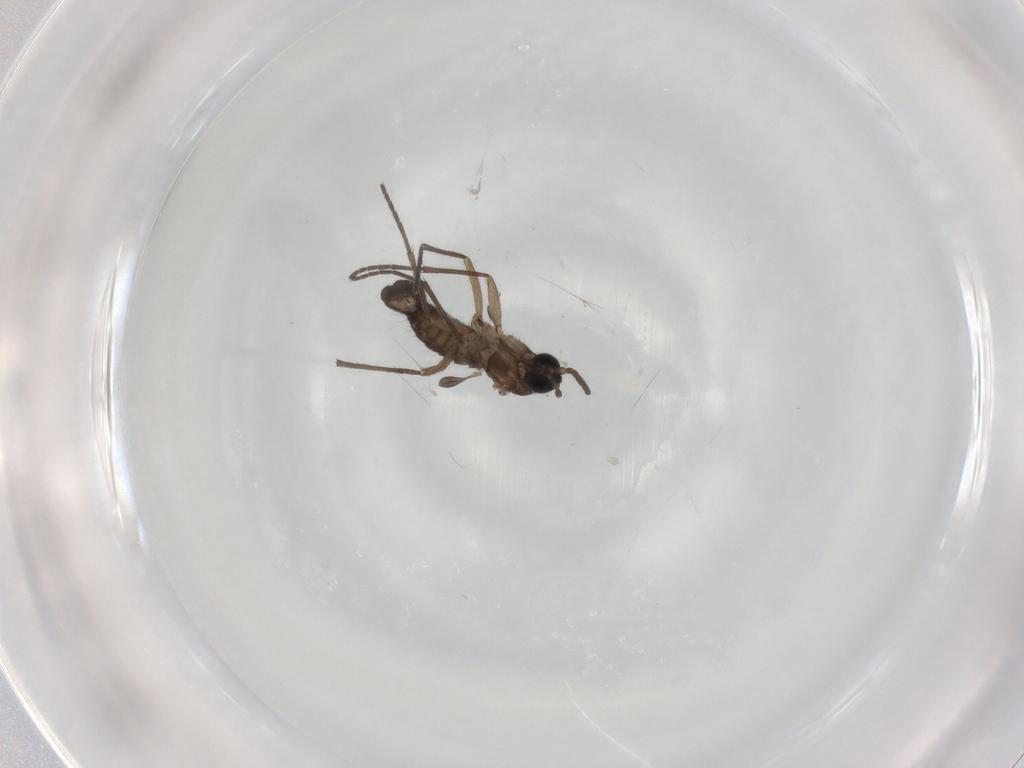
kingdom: Animalia
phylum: Arthropoda
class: Insecta
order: Diptera
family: Sciaridae
